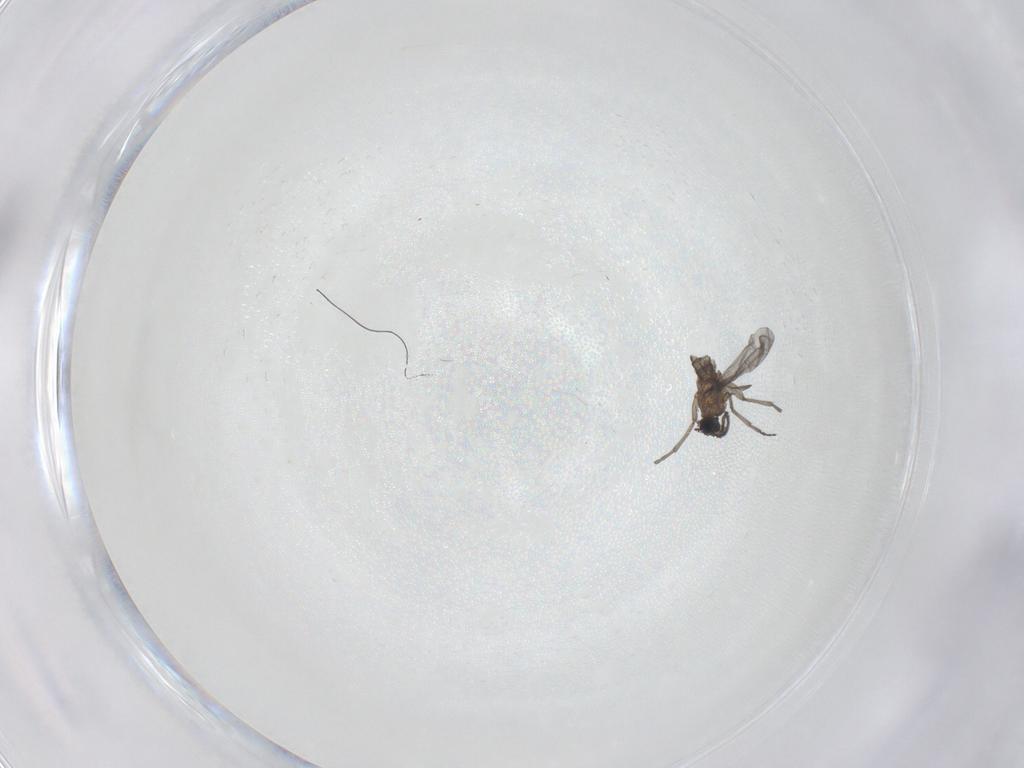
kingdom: Animalia
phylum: Arthropoda
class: Insecta
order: Diptera
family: Sciaridae
